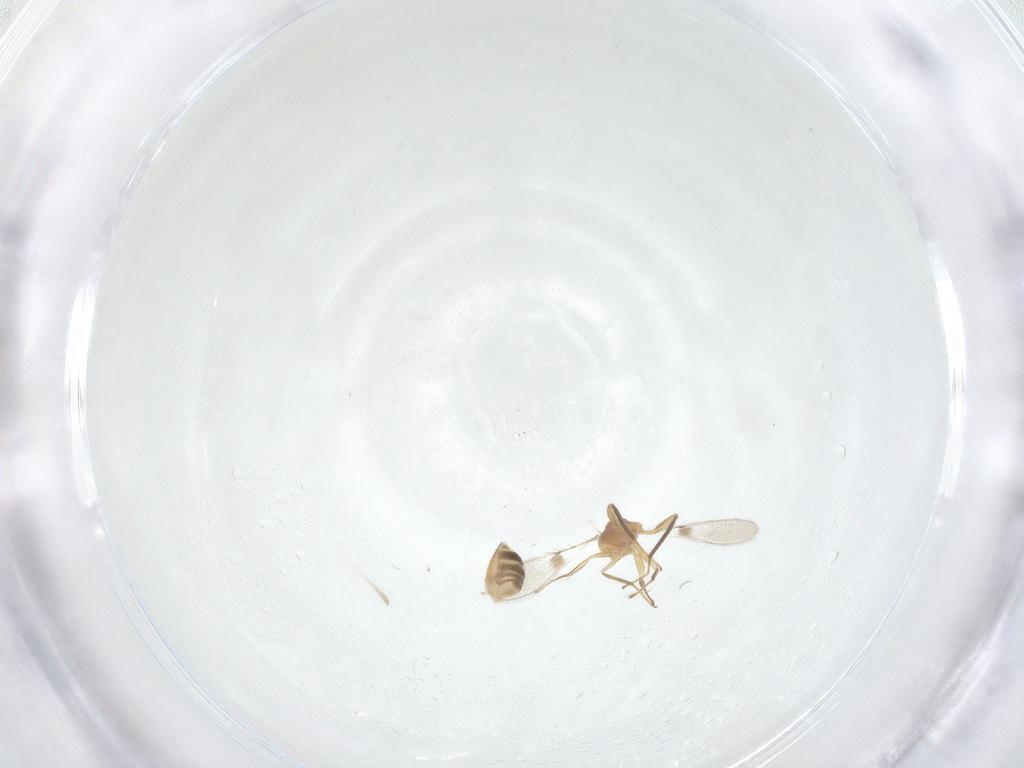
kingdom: Animalia
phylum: Arthropoda
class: Insecta
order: Hymenoptera
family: Mymaridae
